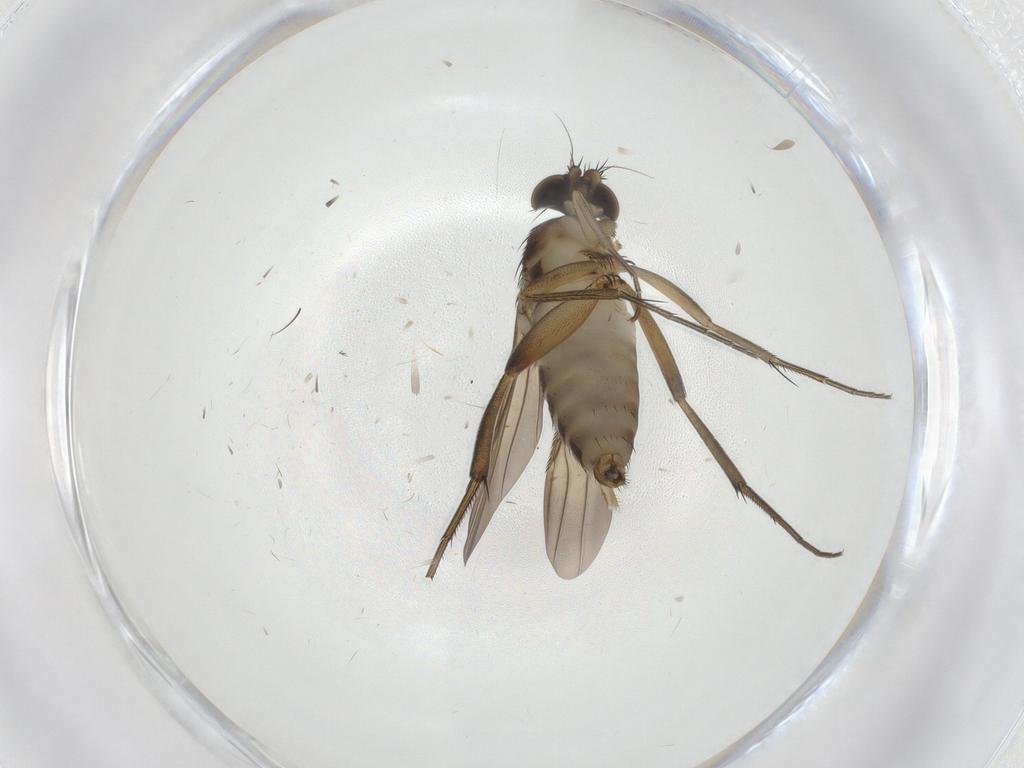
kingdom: Animalia
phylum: Arthropoda
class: Insecta
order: Diptera
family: Phoridae
